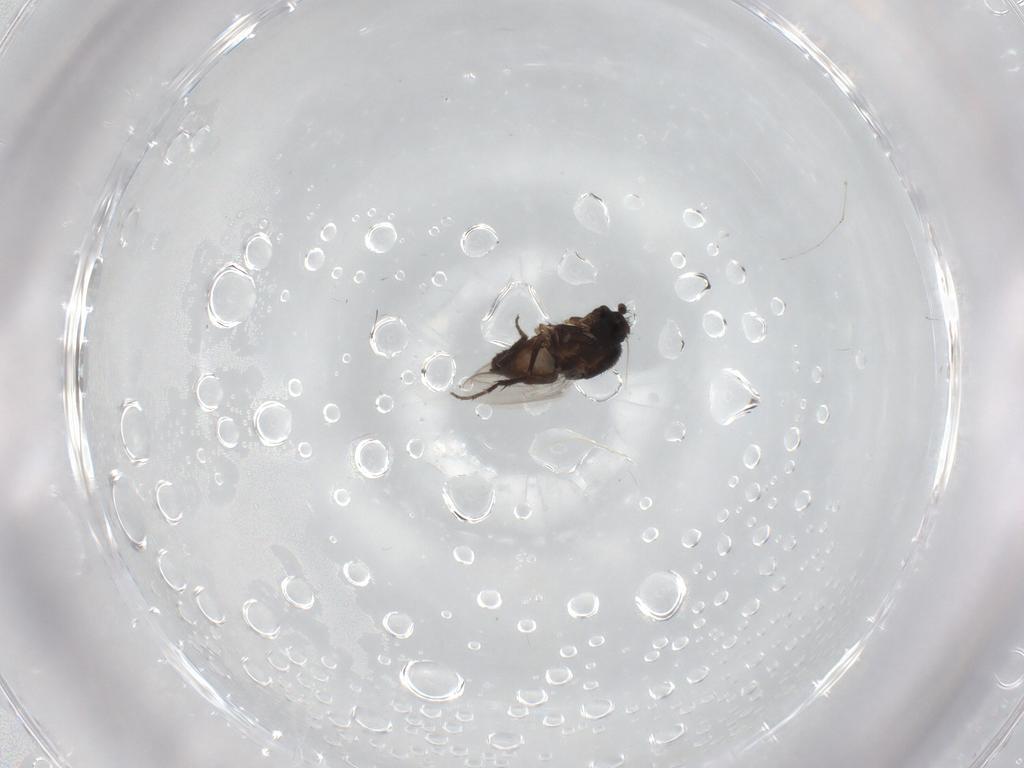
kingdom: Animalia
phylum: Arthropoda
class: Insecta
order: Diptera
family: Sphaeroceridae
